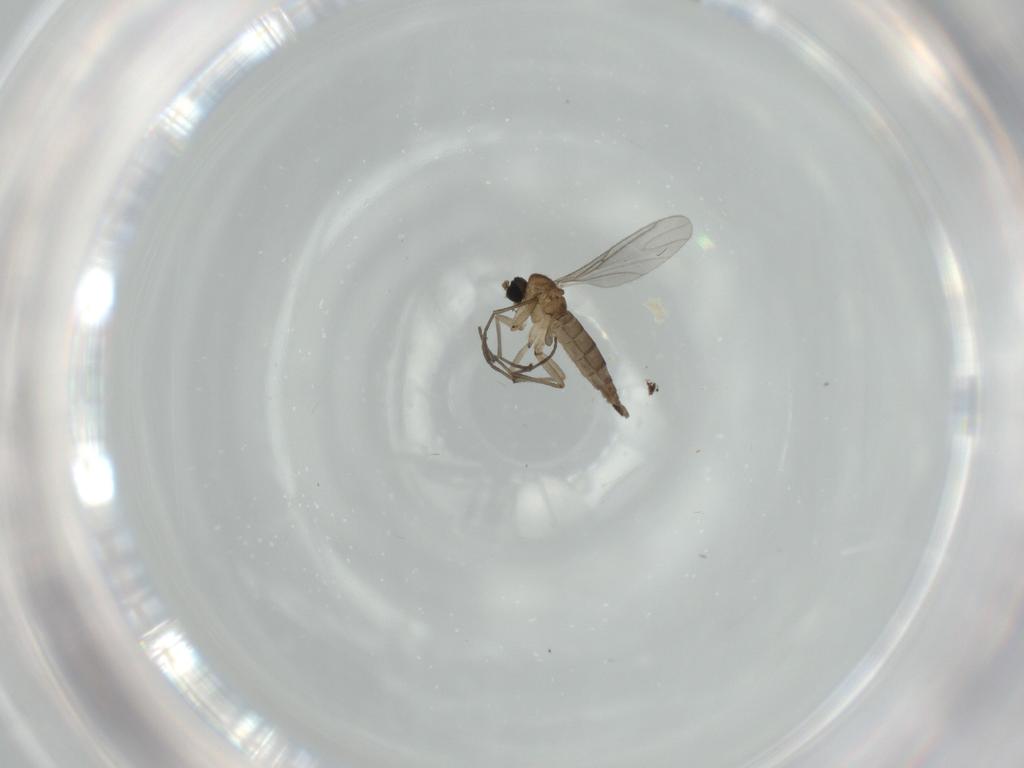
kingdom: Animalia
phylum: Arthropoda
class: Insecta
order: Diptera
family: Sciaridae
